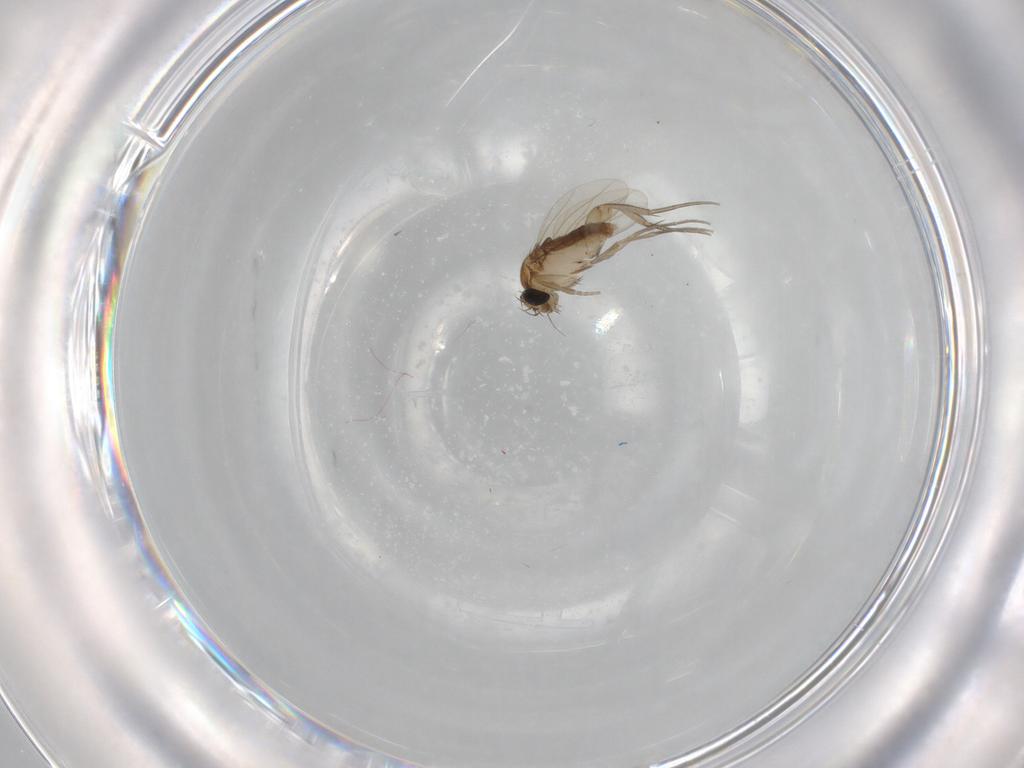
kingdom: Animalia
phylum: Arthropoda
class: Insecta
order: Diptera
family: Phoridae
